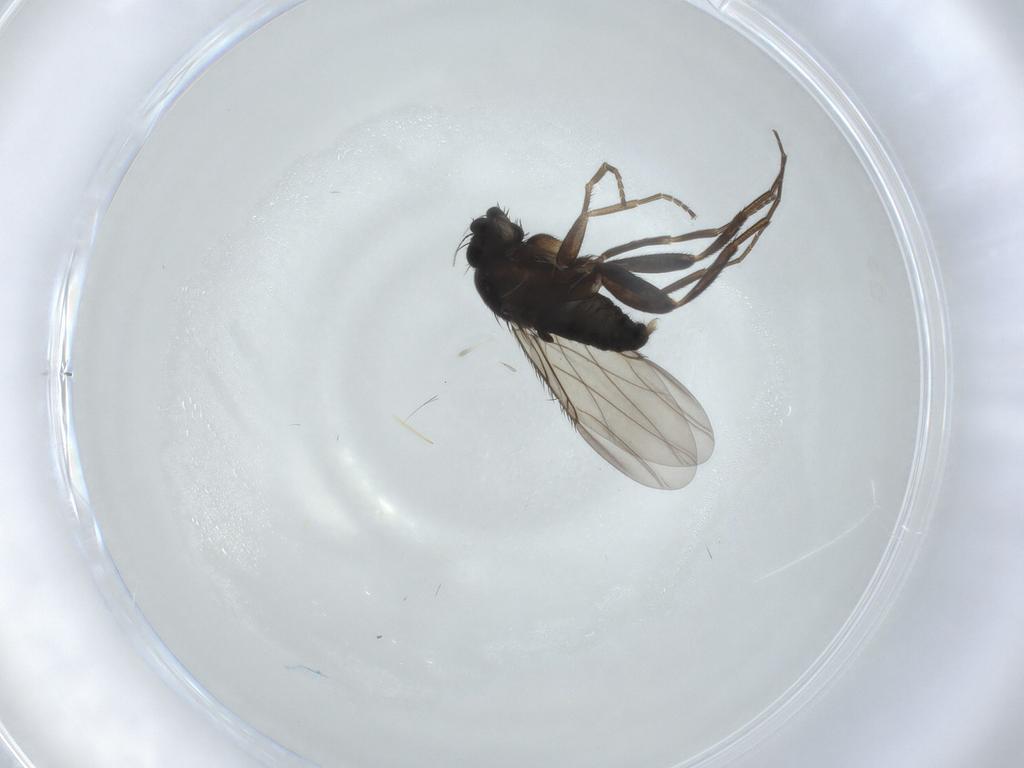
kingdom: Animalia
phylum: Arthropoda
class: Insecta
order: Diptera
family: Phoridae
